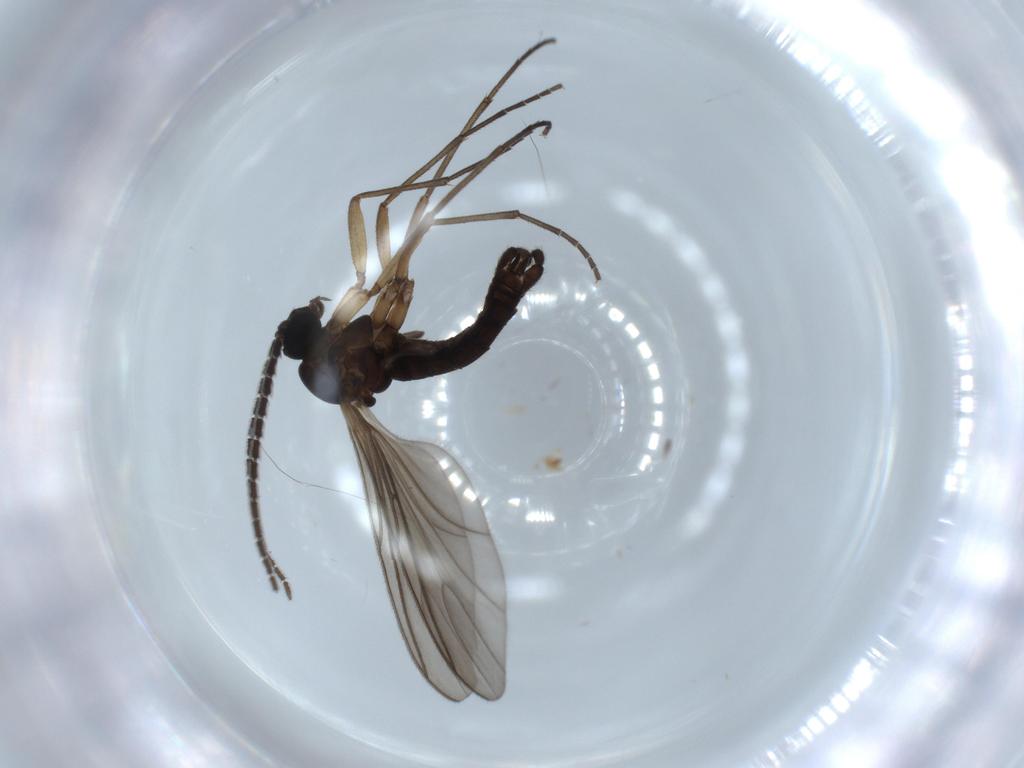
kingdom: Animalia
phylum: Arthropoda
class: Insecta
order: Diptera
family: Sciaridae
